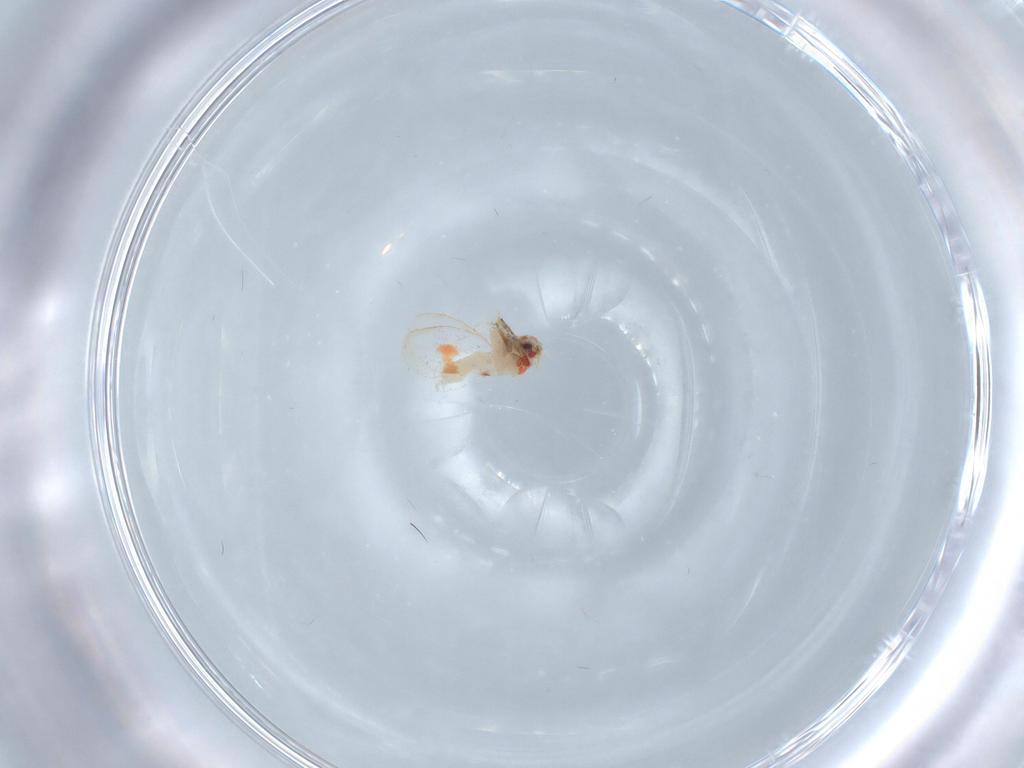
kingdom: Animalia
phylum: Arthropoda
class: Insecta
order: Hemiptera
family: Aleyrodidae
